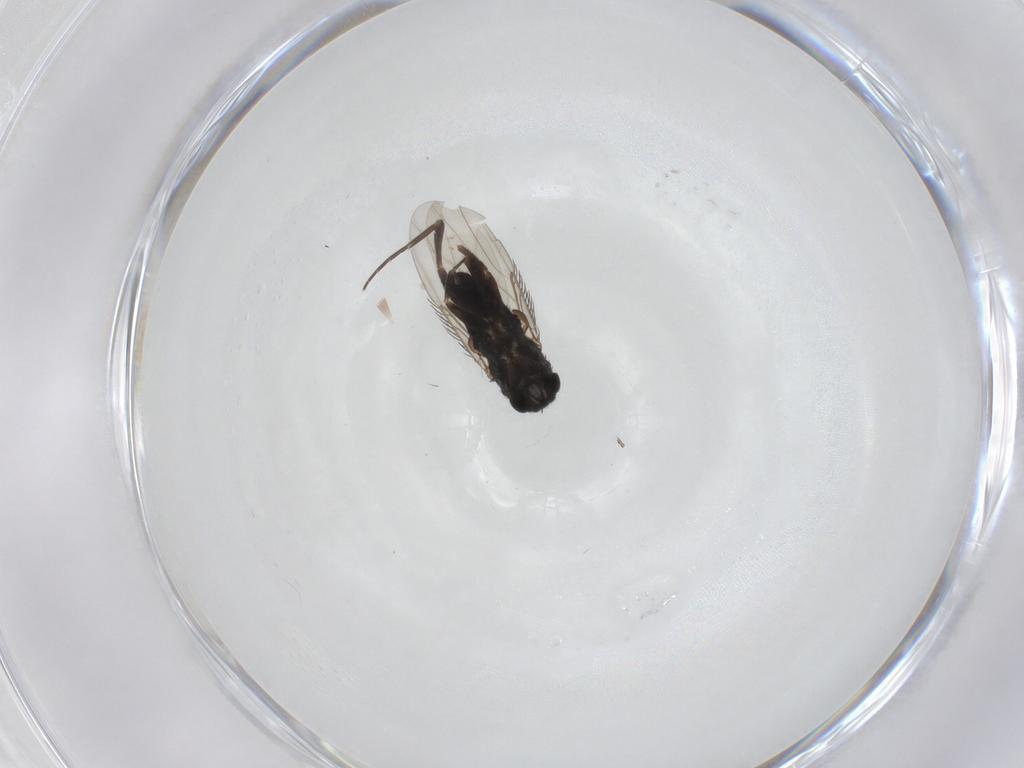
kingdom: Animalia
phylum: Arthropoda
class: Insecta
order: Diptera
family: Phoridae
